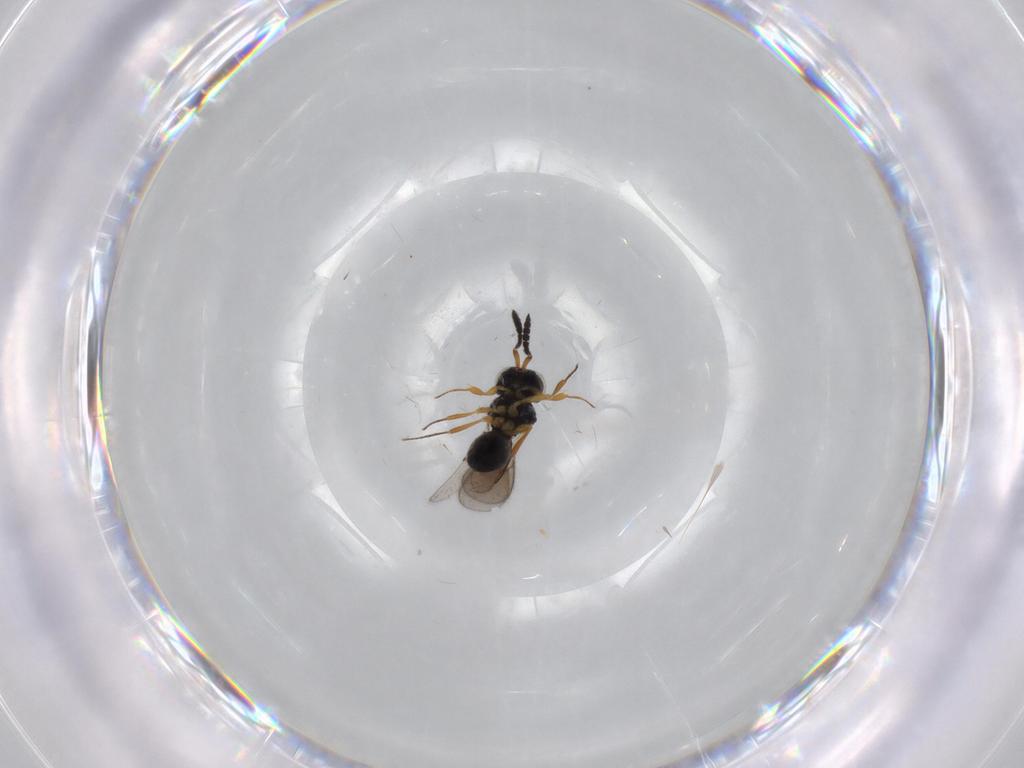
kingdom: Animalia
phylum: Arthropoda
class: Insecta
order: Hymenoptera
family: Scelionidae
